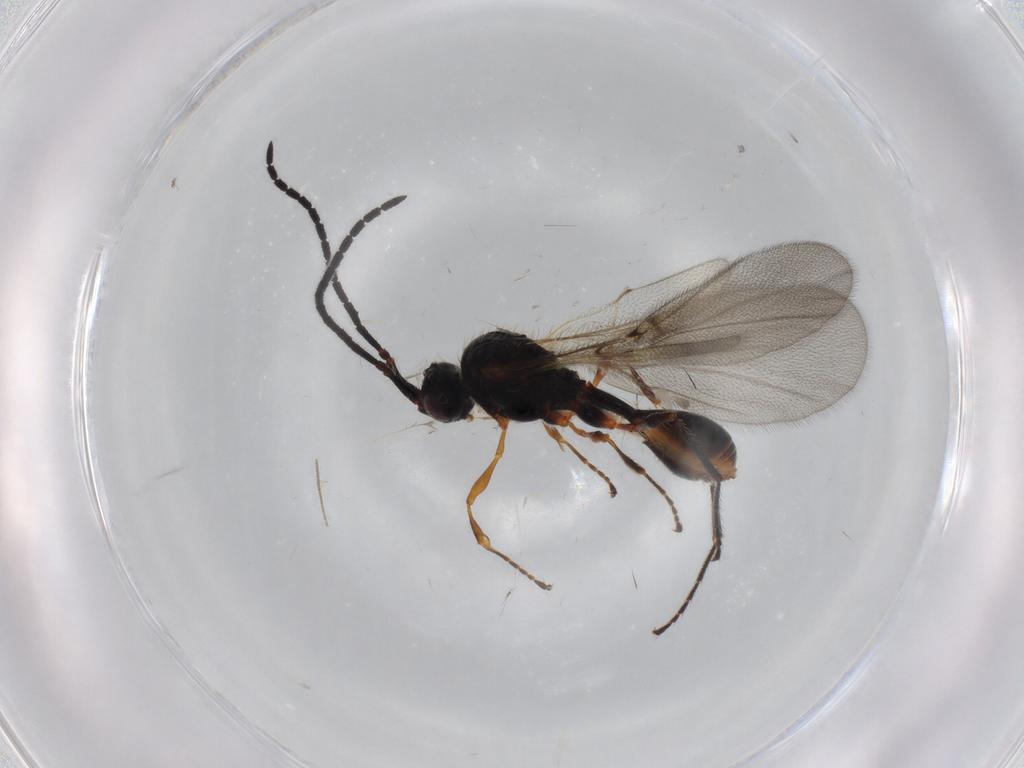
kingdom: Animalia
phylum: Arthropoda
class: Insecta
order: Hymenoptera
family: Diapriidae
